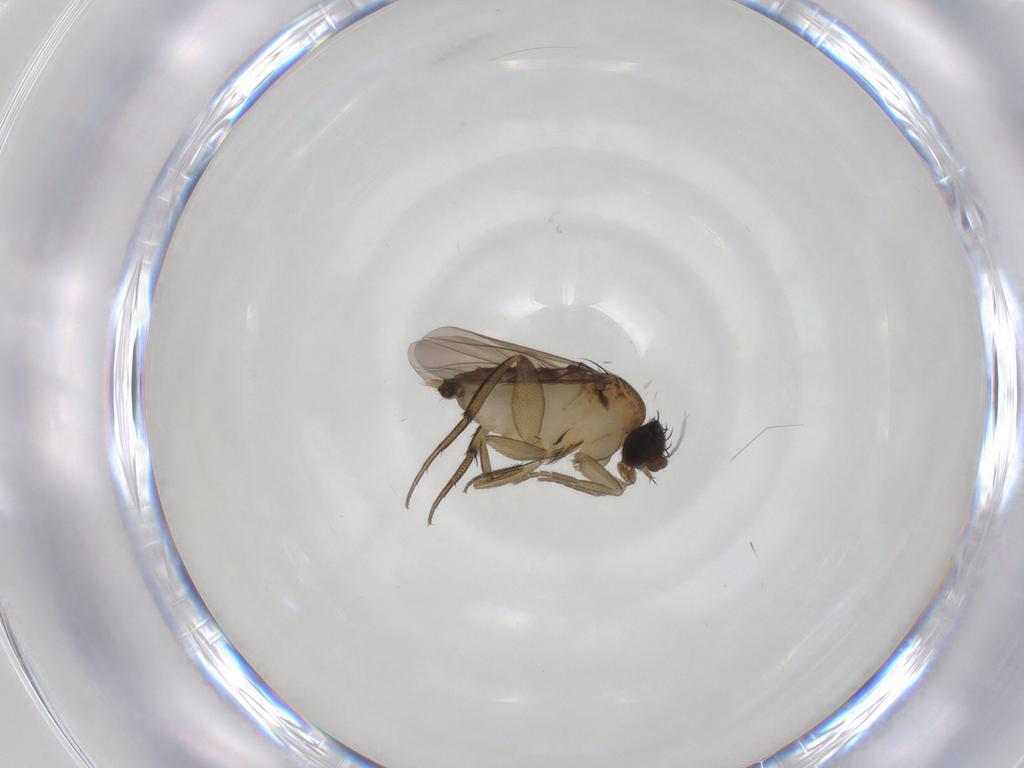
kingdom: Animalia
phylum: Arthropoda
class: Insecta
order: Diptera
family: Phoridae
